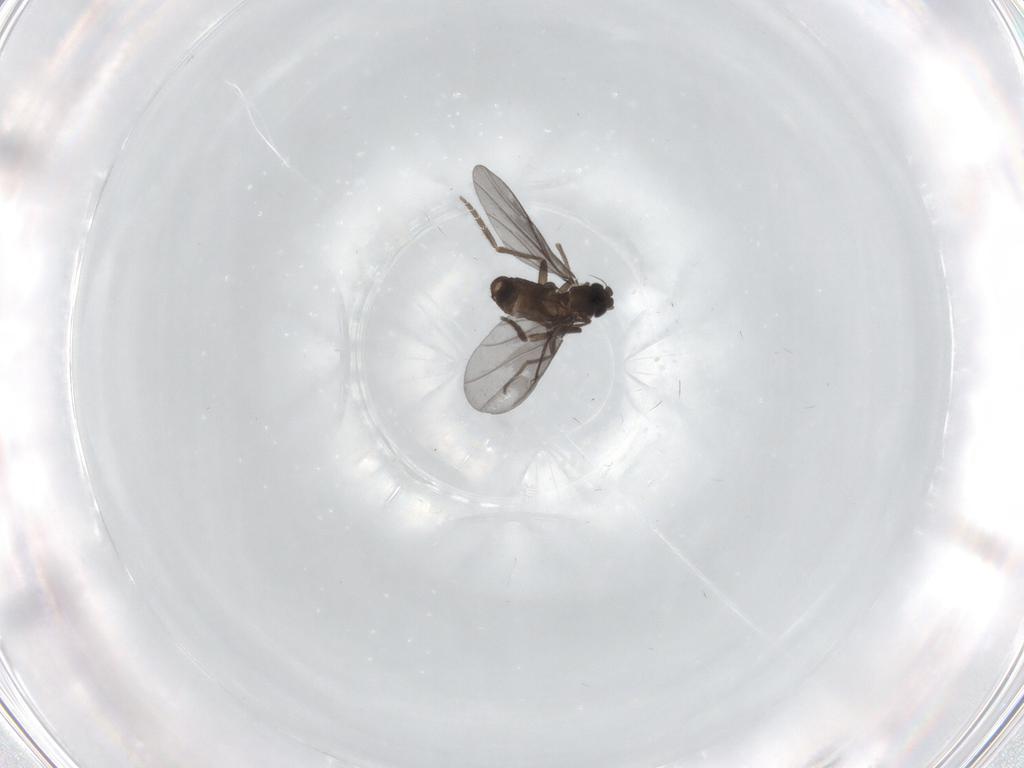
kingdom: Animalia
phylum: Arthropoda
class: Insecta
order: Diptera
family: Phoridae
